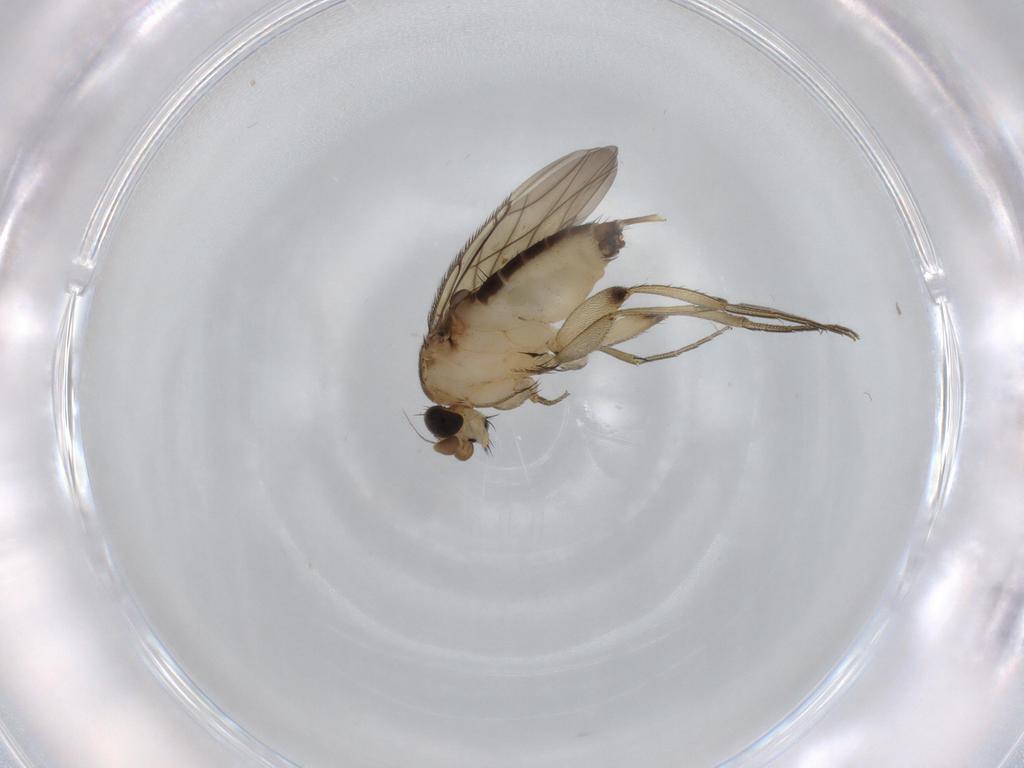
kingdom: Animalia
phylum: Arthropoda
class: Insecta
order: Diptera
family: Phoridae
